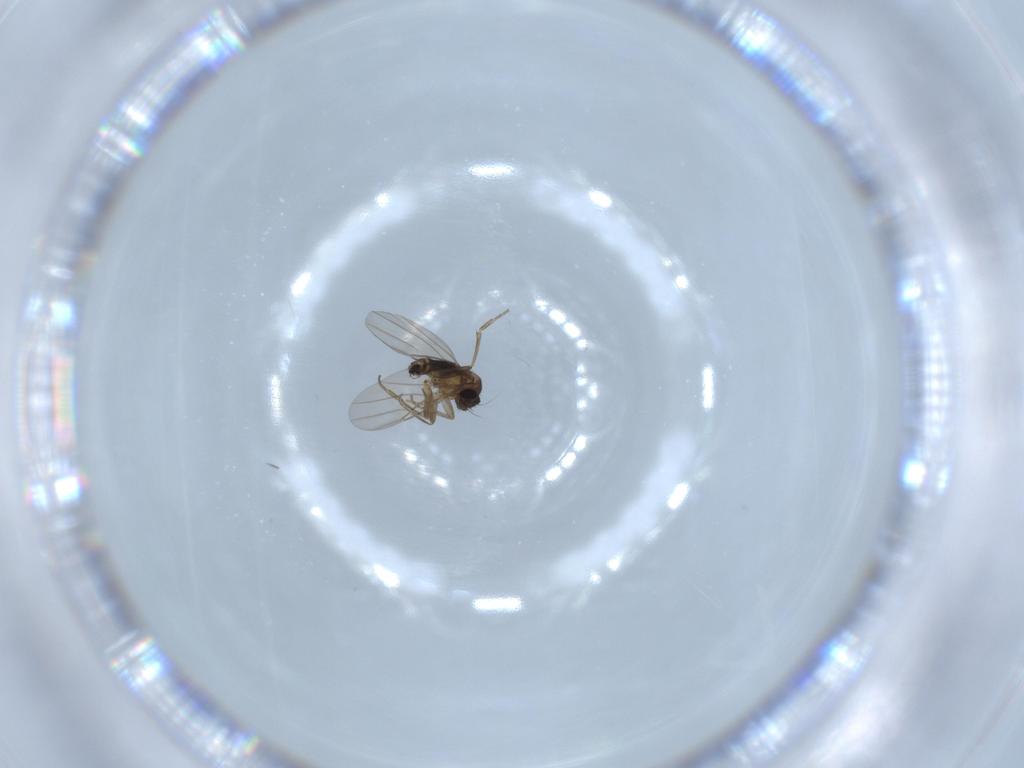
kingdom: Animalia
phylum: Arthropoda
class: Insecta
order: Diptera
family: Phoridae
